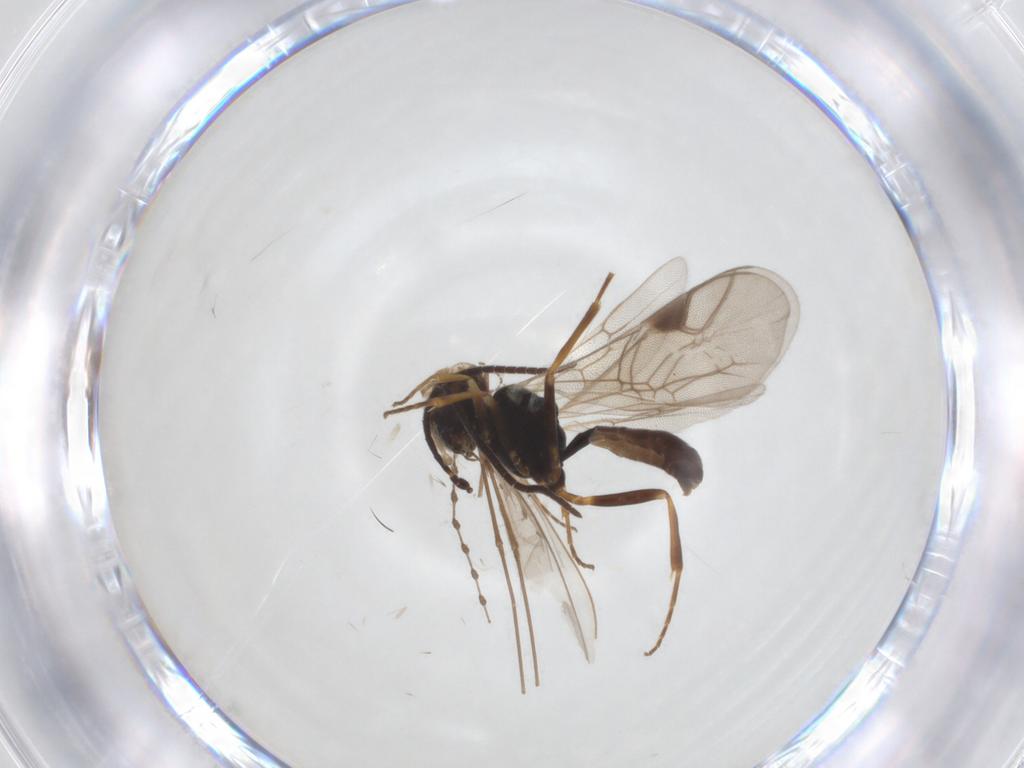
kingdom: Animalia
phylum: Arthropoda
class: Insecta
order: Hymenoptera
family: Ichneumonidae
